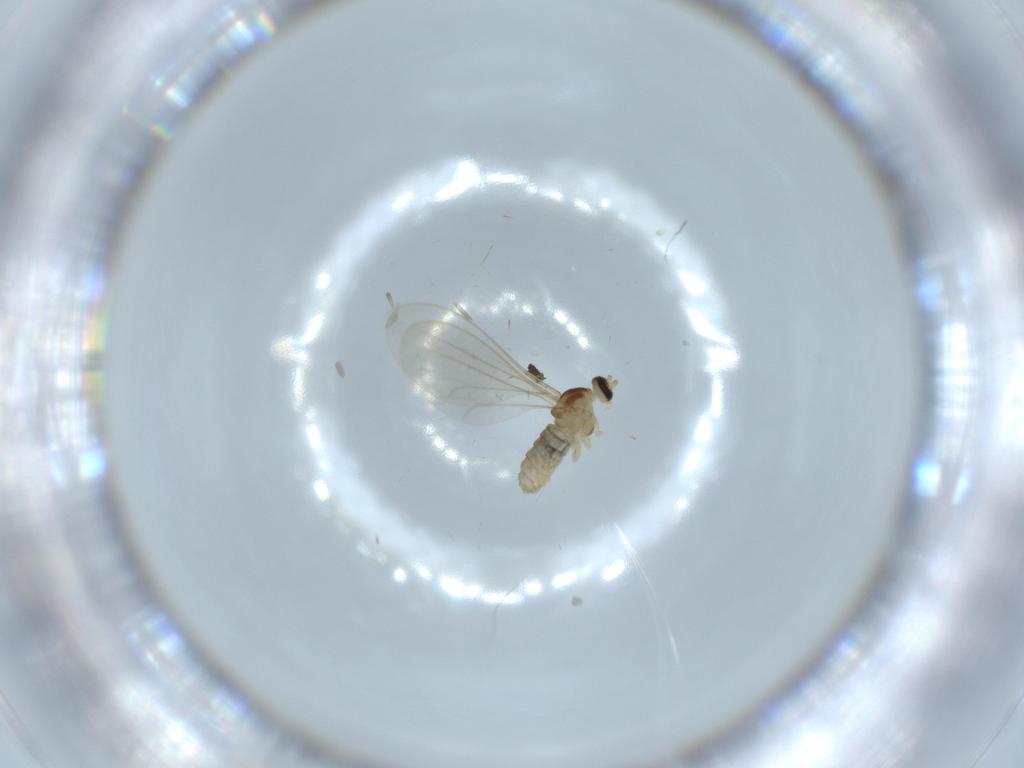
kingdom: Animalia
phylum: Arthropoda
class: Insecta
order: Diptera
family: Cecidomyiidae
